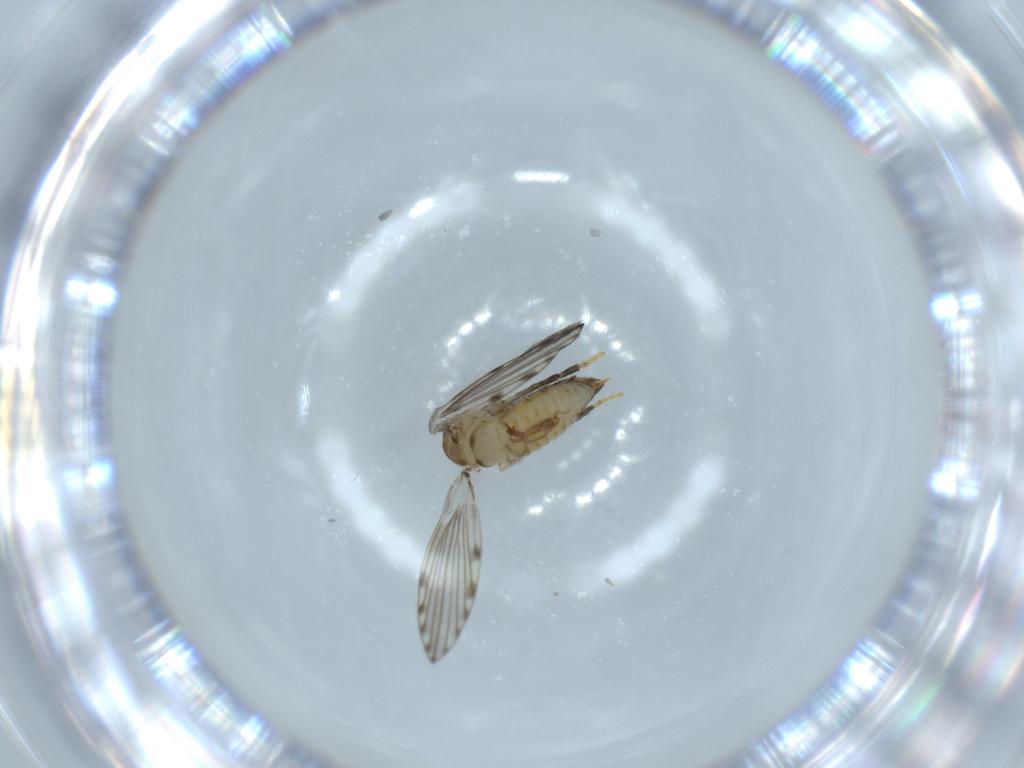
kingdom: Animalia
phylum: Arthropoda
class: Insecta
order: Diptera
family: Psychodidae
